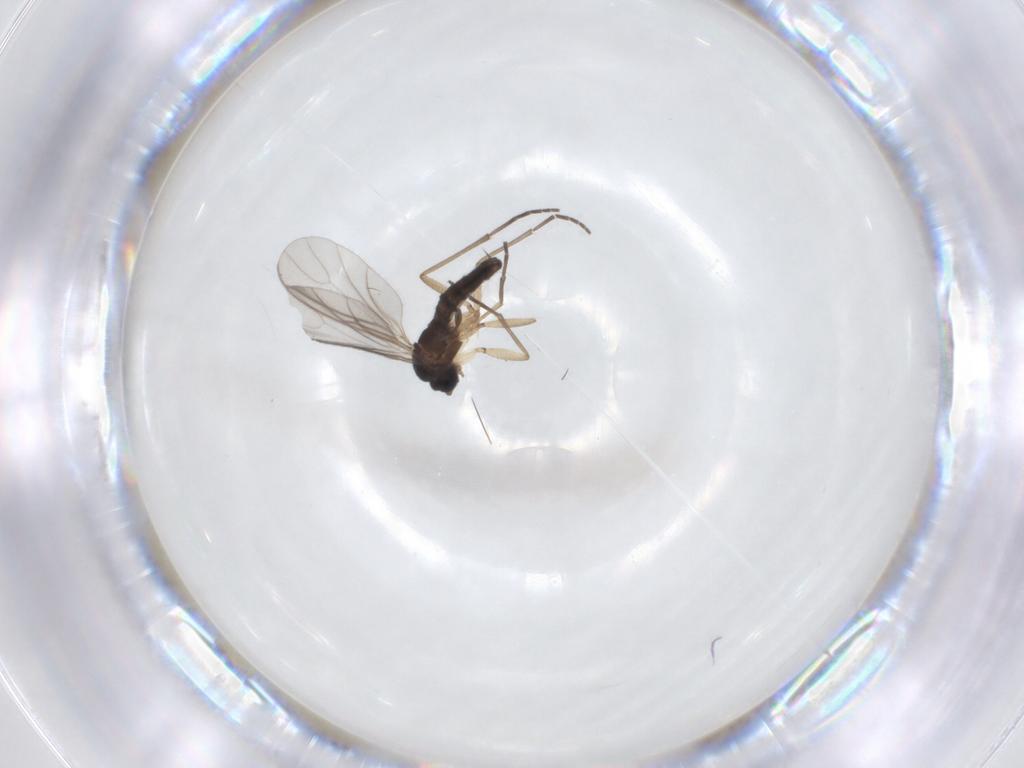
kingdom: Animalia
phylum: Arthropoda
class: Insecta
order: Diptera
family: Sciaridae
